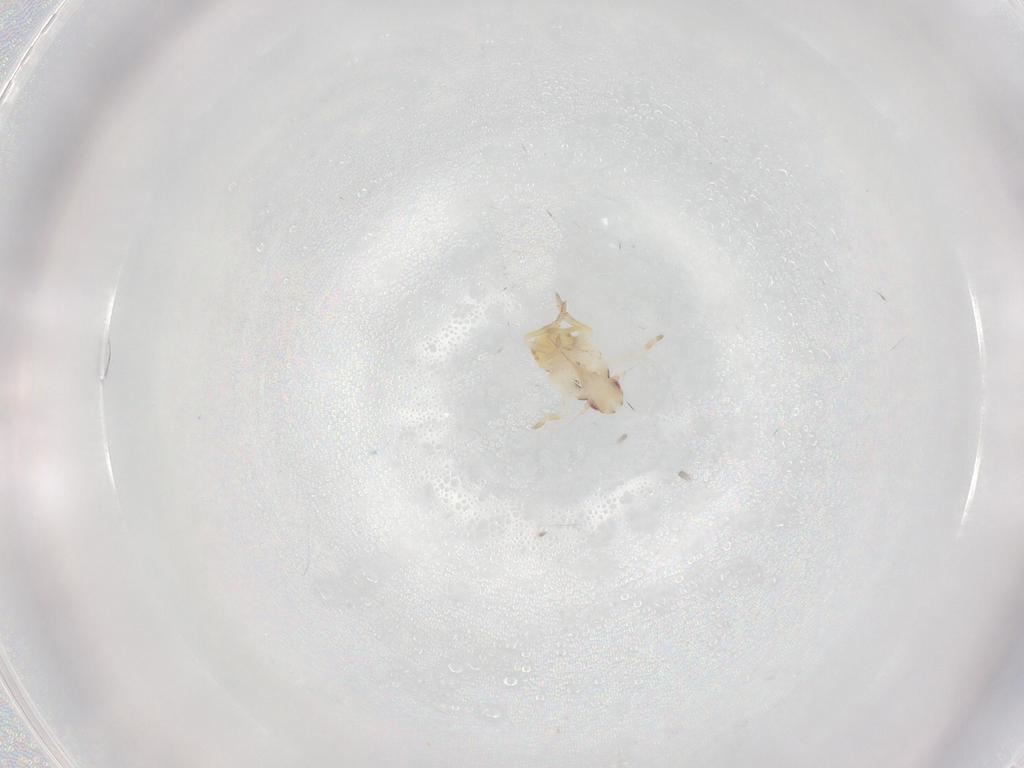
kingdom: Animalia
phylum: Arthropoda
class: Insecta
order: Hemiptera
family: Flatidae
